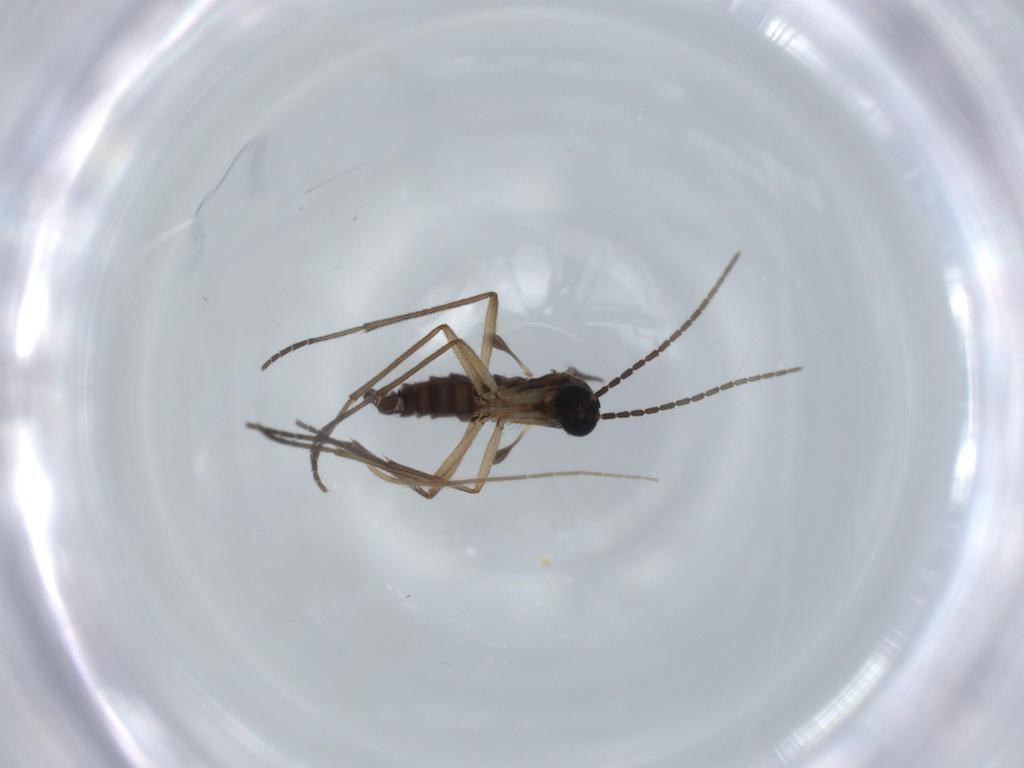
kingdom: Animalia
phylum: Arthropoda
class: Insecta
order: Diptera
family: Sciaridae
